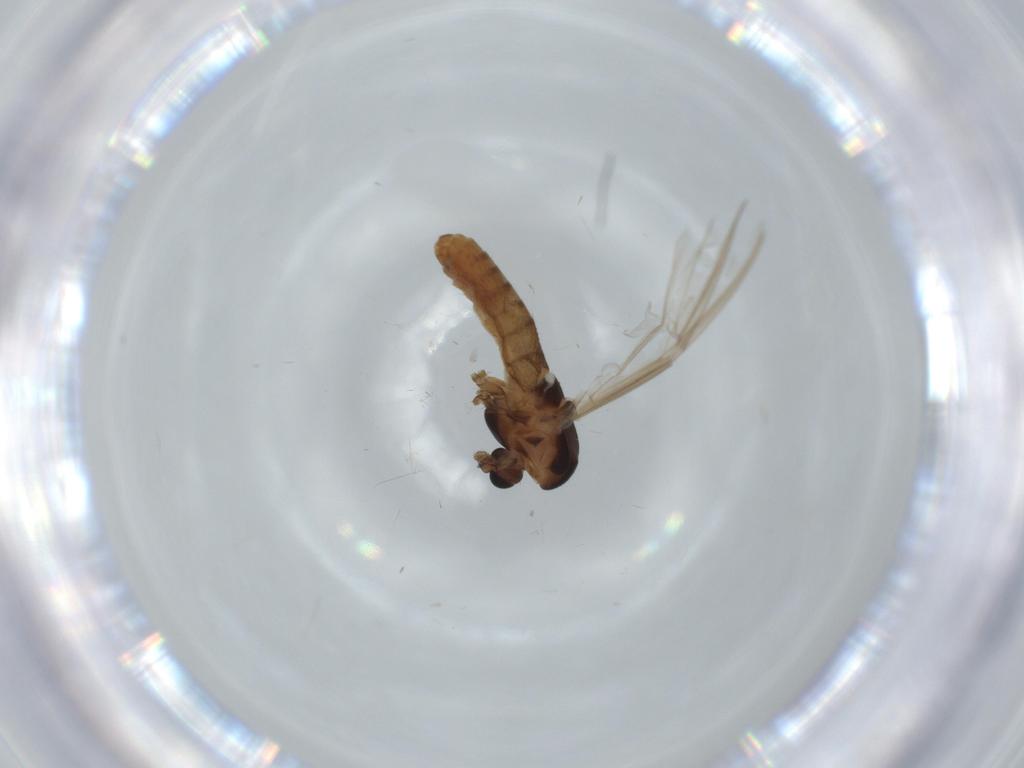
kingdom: Animalia
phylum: Arthropoda
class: Insecta
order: Diptera
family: Chironomidae
